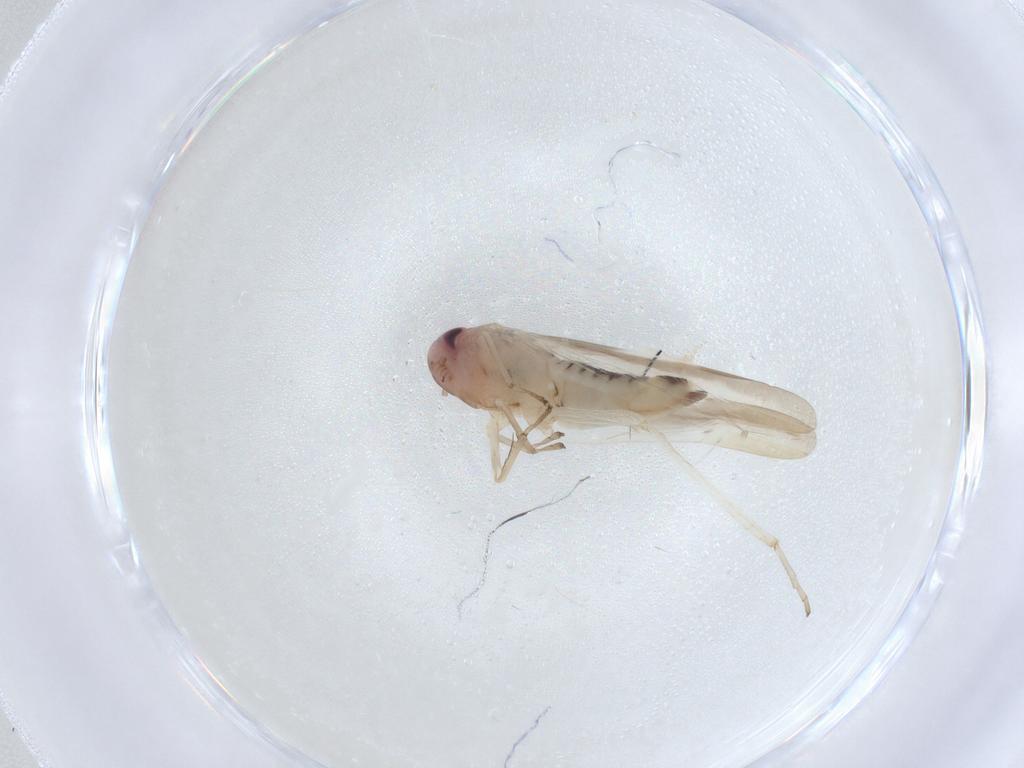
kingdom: Animalia
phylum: Arthropoda
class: Insecta
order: Hemiptera
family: Cicadellidae
